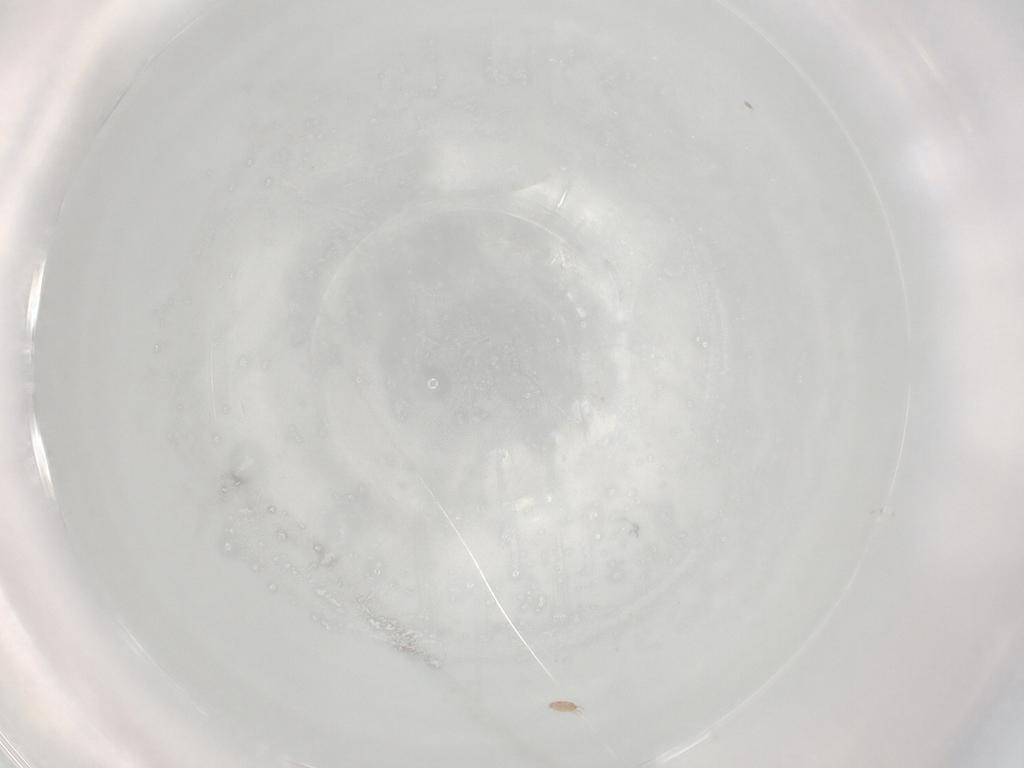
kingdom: Animalia
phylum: Arthropoda
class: Arachnida
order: Sarcoptiformes
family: Hemisarcoptidae
